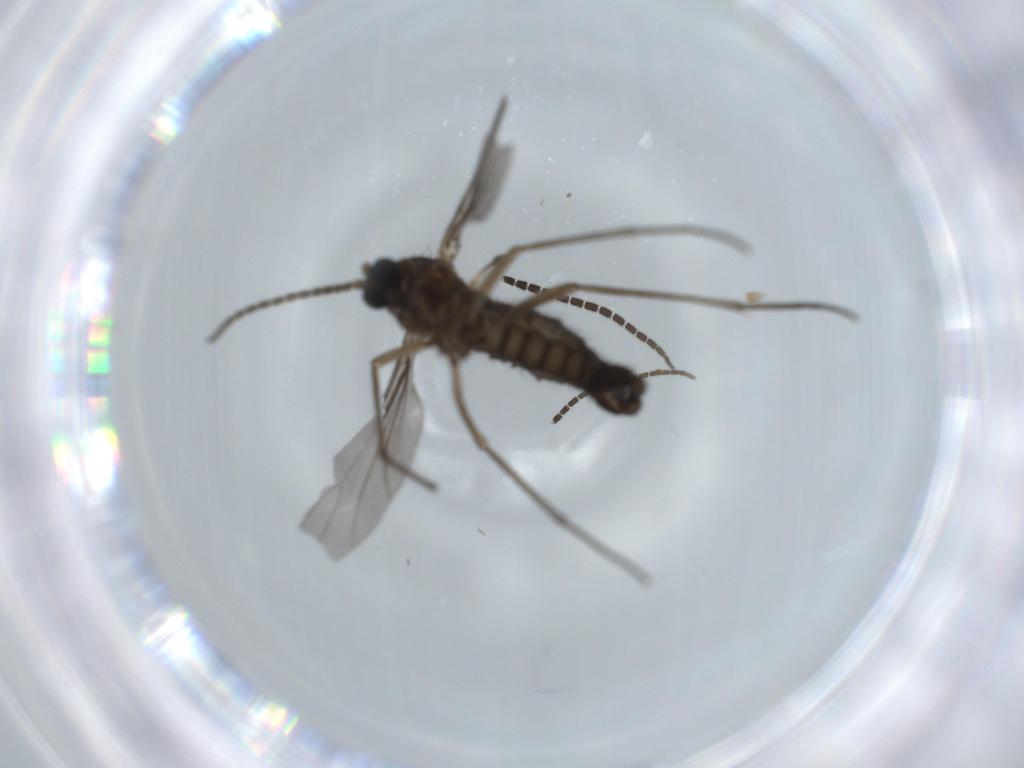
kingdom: Animalia
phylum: Arthropoda
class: Insecta
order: Diptera
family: Sciaridae
